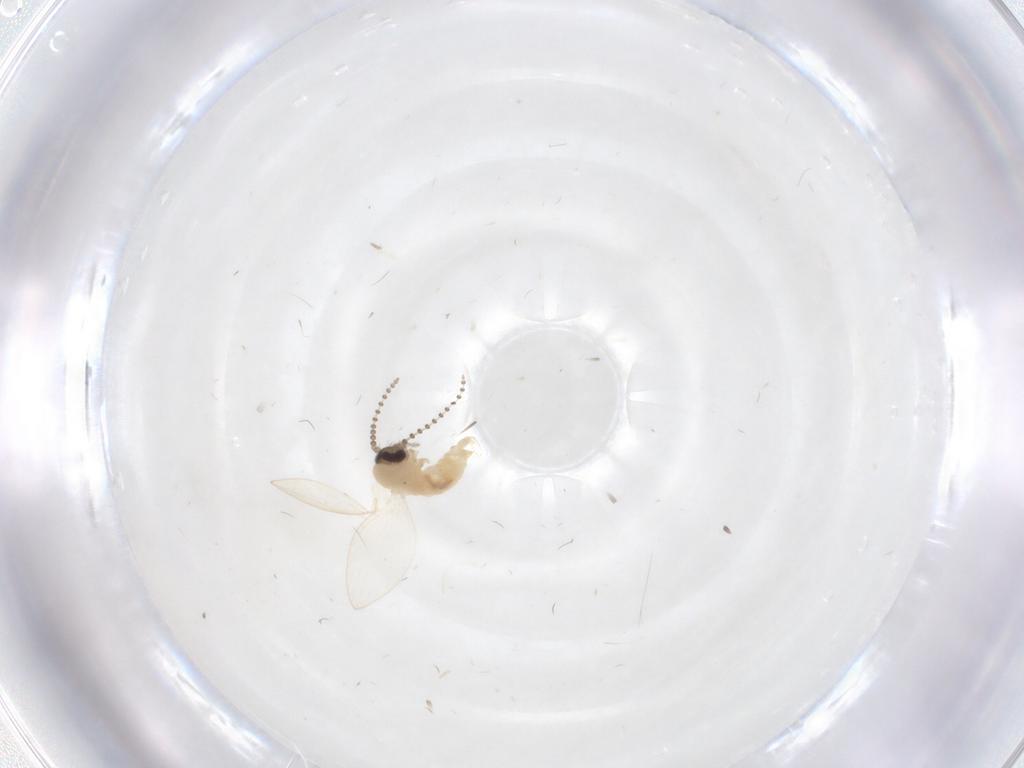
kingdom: Animalia
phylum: Arthropoda
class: Insecta
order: Diptera
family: Psychodidae
